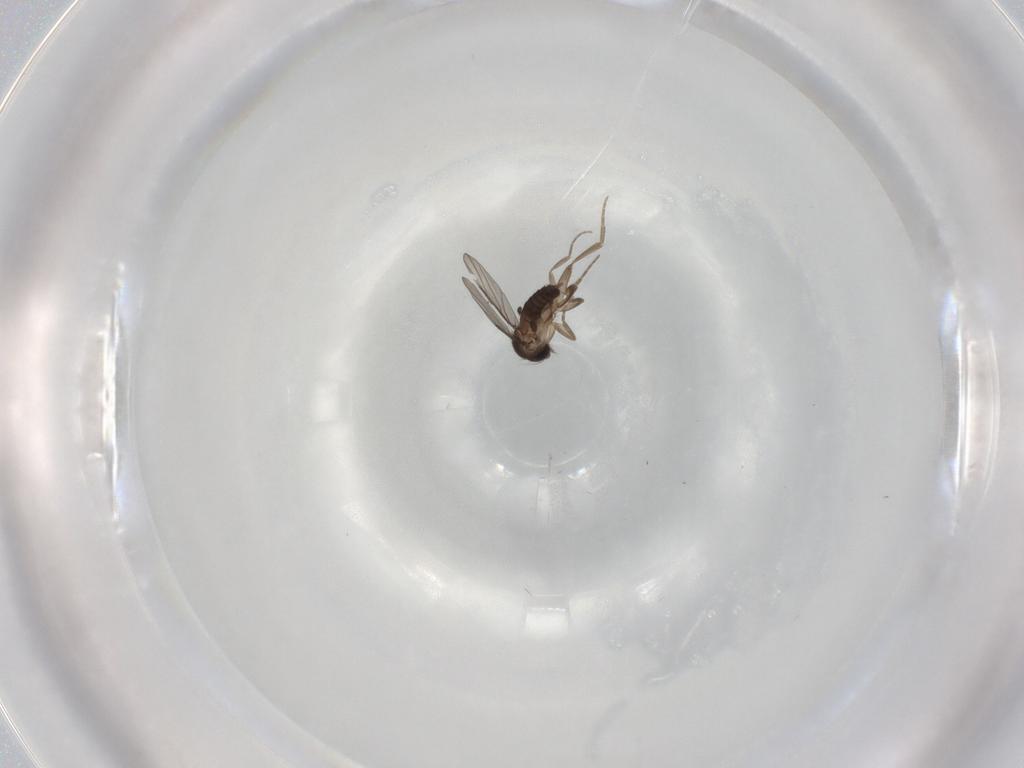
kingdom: Animalia
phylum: Arthropoda
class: Insecta
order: Diptera
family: Phoridae
